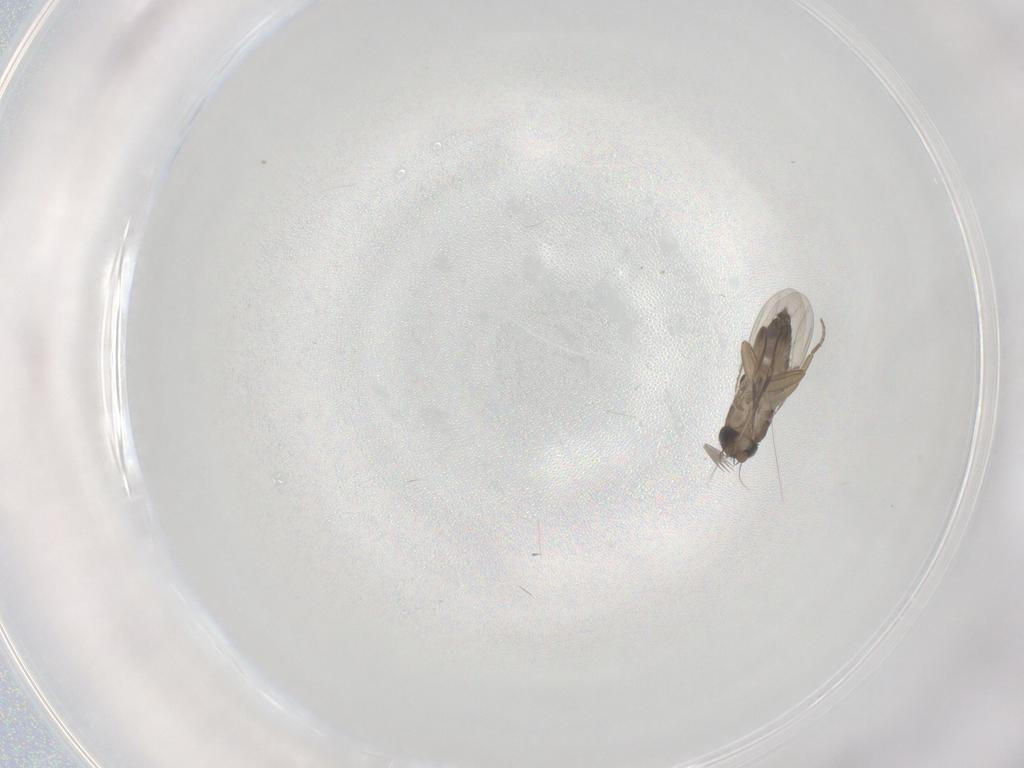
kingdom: Animalia
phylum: Arthropoda
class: Insecta
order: Diptera
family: Phoridae
